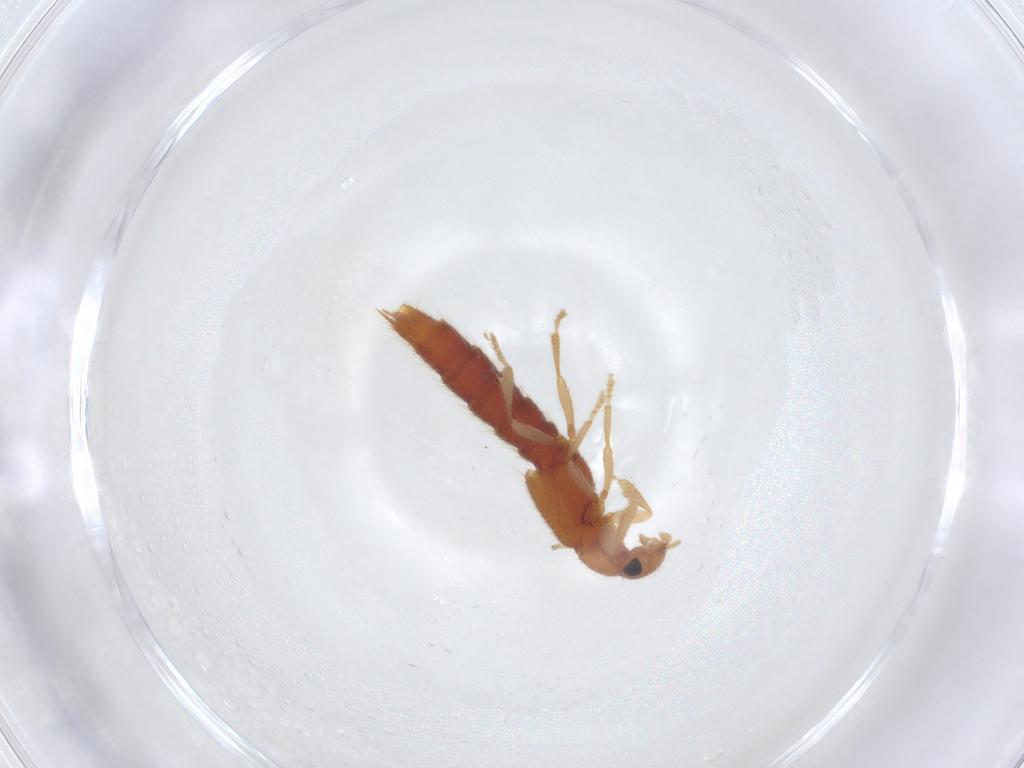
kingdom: Animalia
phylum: Arthropoda
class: Insecta
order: Coleoptera
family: Staphylinidae
